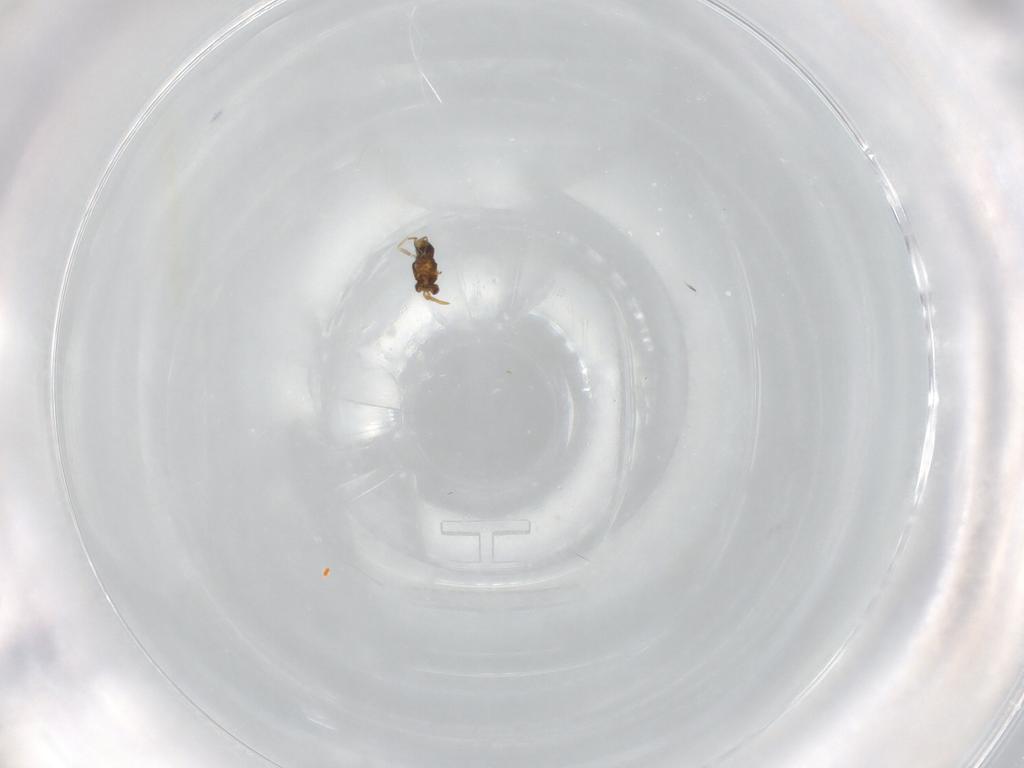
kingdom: Animalia
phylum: Arthropoda
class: Insecta
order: Hymenoptera
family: Aphelinidae
